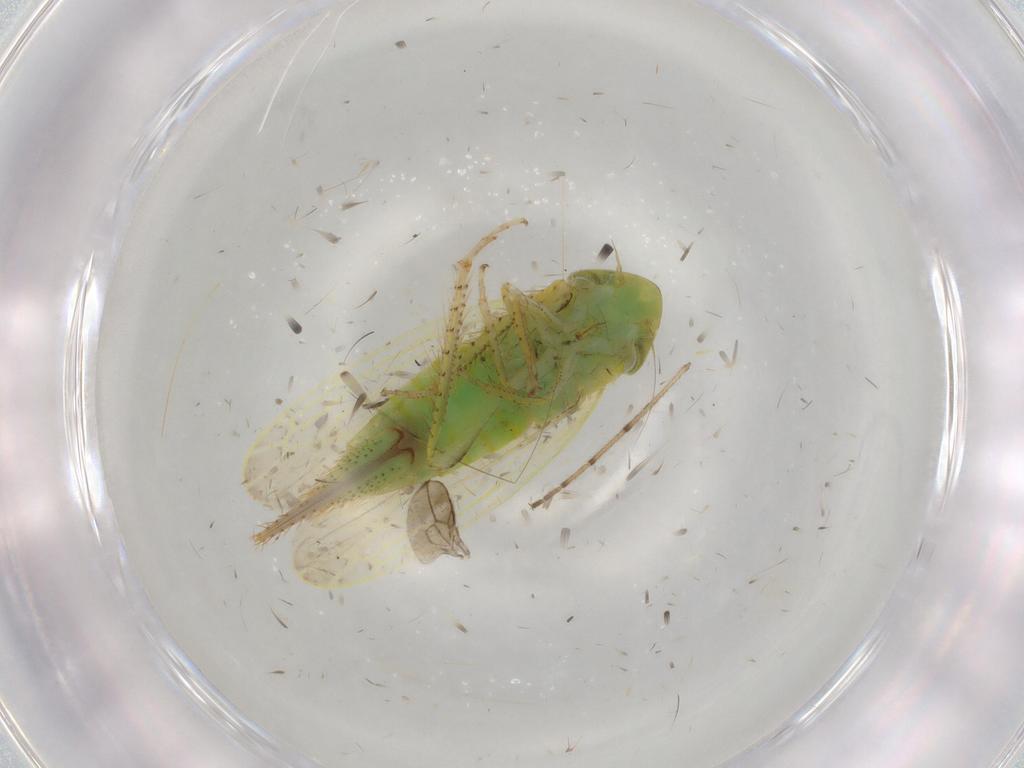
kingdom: Animalia
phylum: Arthropoda
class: Insecta
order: Hemiptera
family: Cicadellidae
